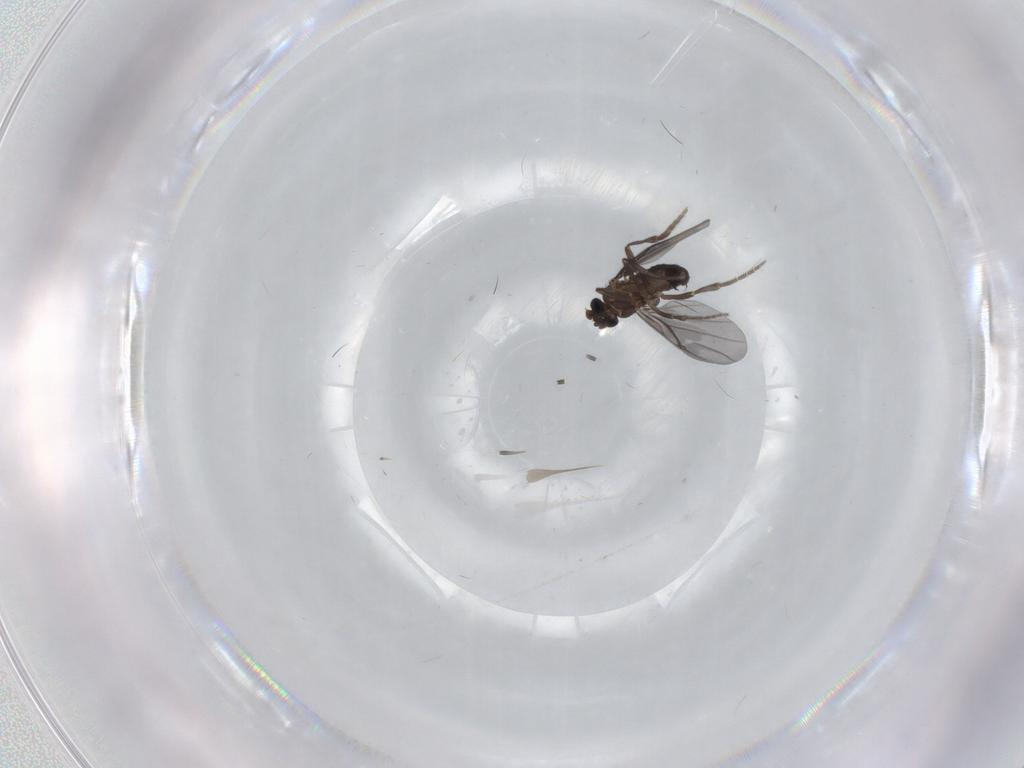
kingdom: Animalia
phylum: Arthropoda
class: Insecta
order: Diptera
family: Phoridae
